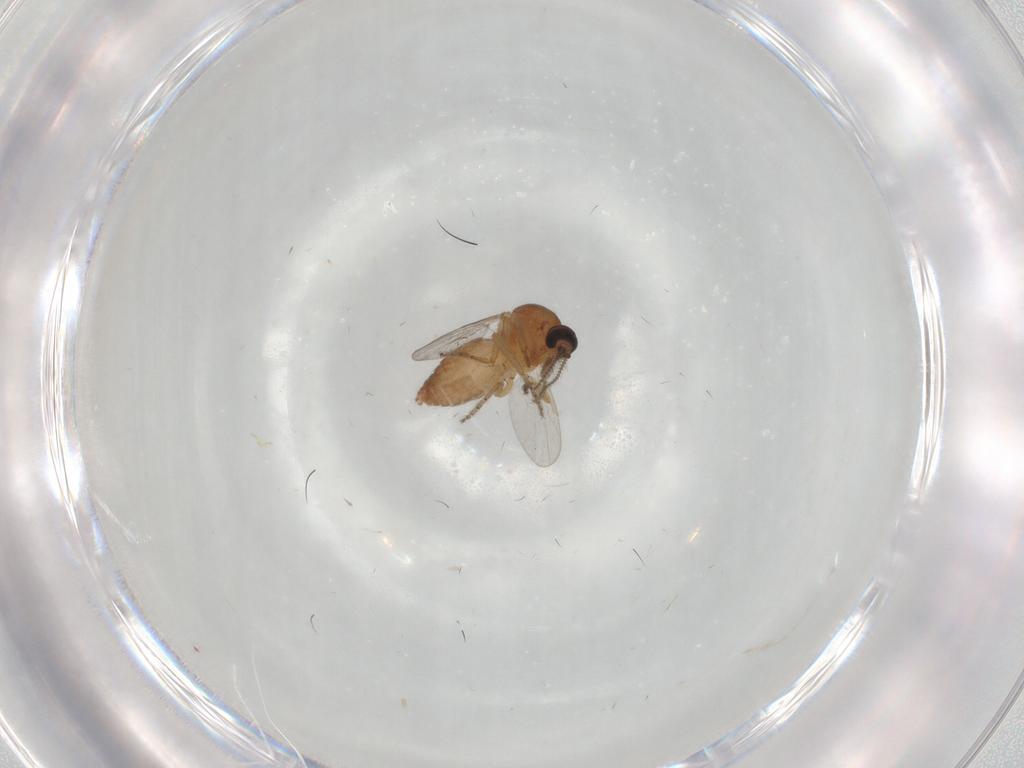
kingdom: Animalia
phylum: Arthropoda
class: Insecta
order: Diptera
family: Ceratopogonidae
